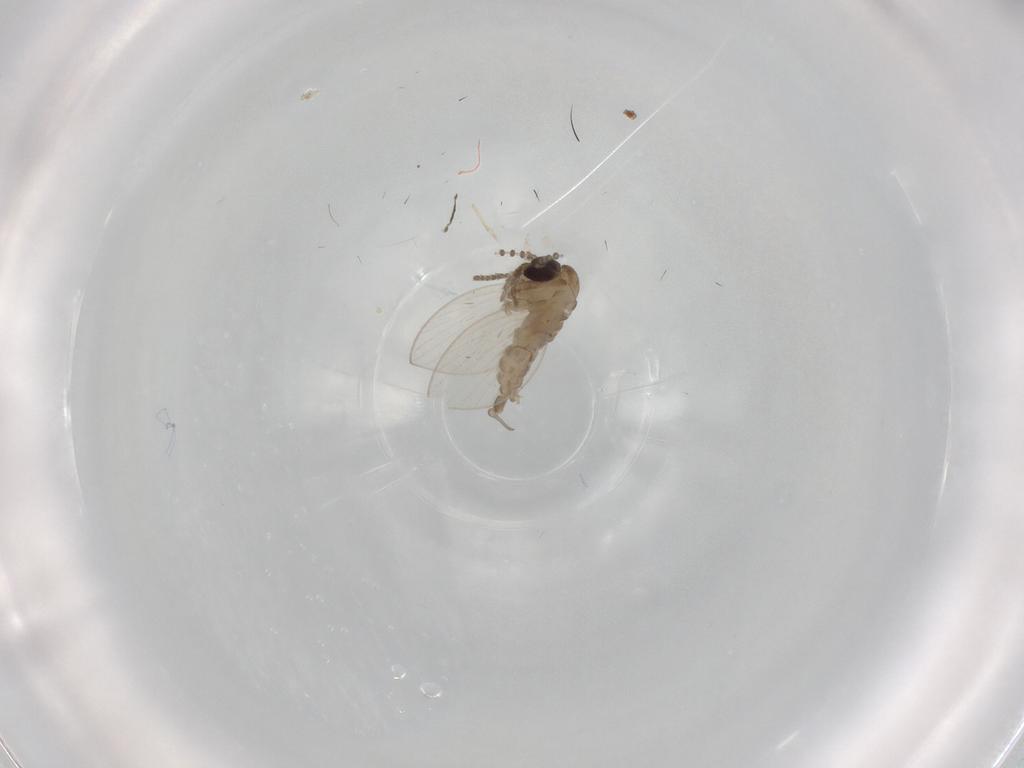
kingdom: Animalia
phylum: Arthropoda
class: Insecta
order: Diptera
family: Psychodidae
